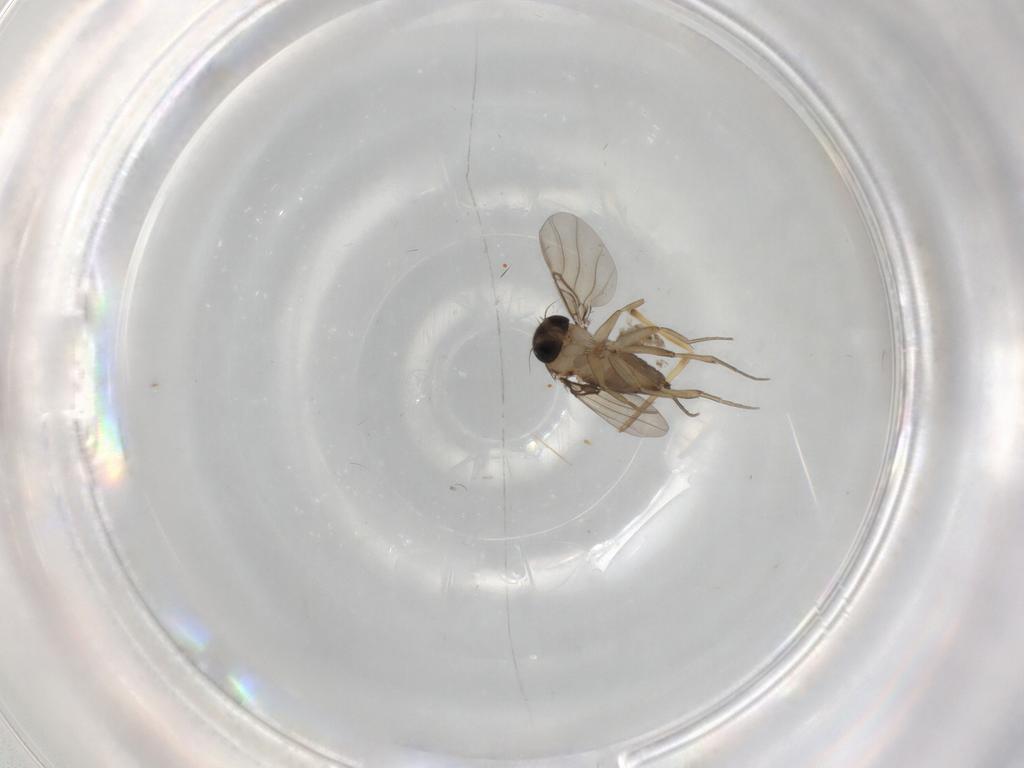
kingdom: Animalia
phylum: Arthropoda
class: Insecta
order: Diptera
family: Phoridae
